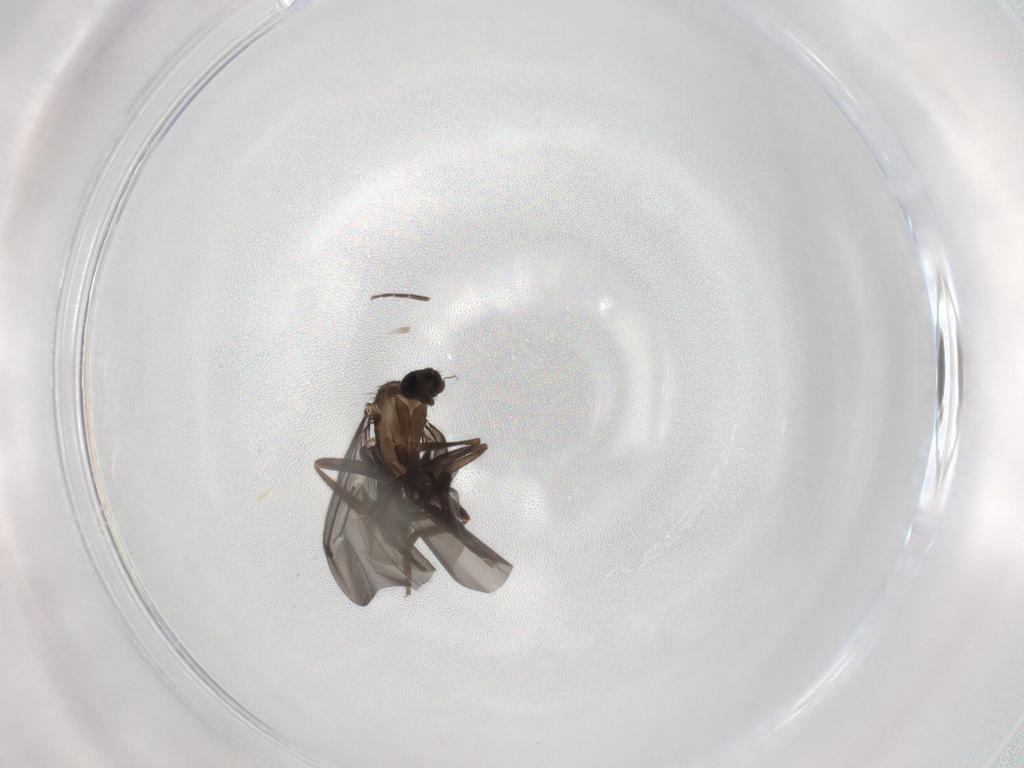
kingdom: Animalia
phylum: Arthropoda
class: Insecta
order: Diptera
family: Phoridae
